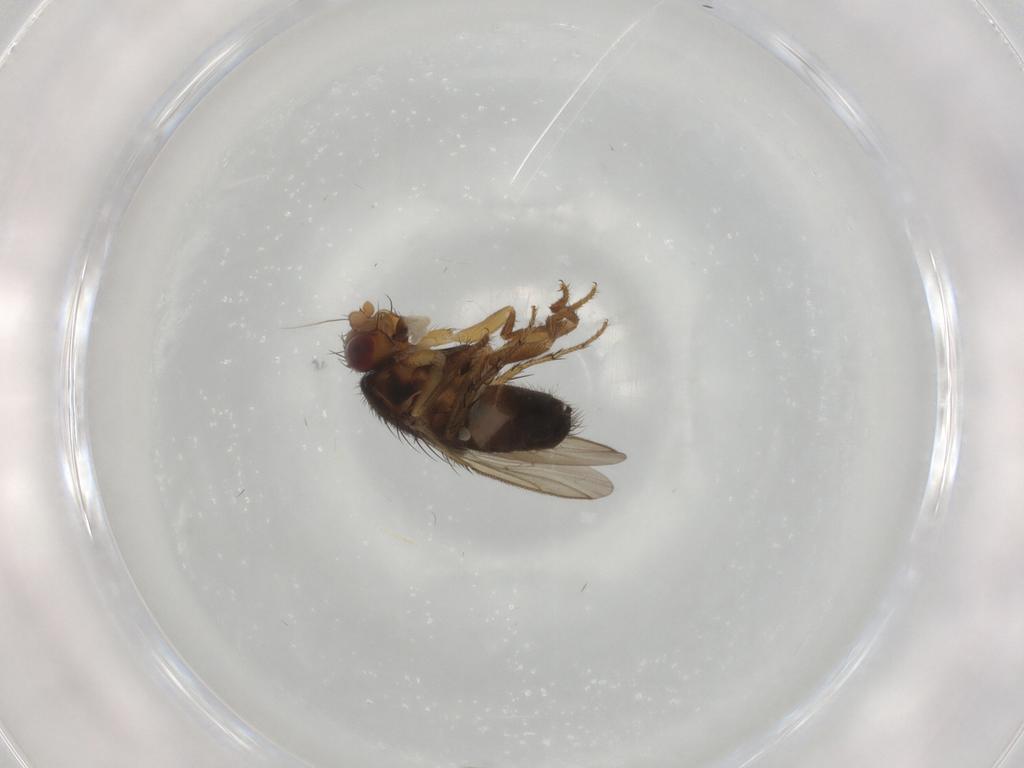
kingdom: Animalia
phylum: Arthropoda
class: Insecta
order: Diptera
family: Sphaeroceridae
